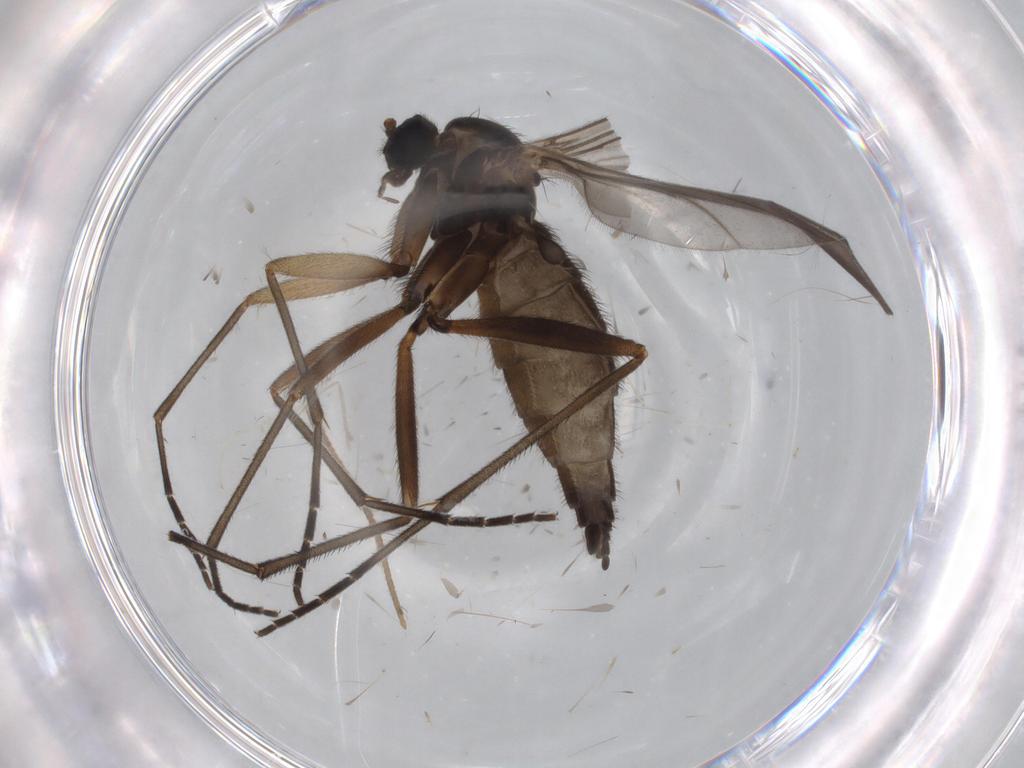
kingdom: Animalia
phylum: Arthropoda
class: Insecta
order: Diptera
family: Sciaridae
